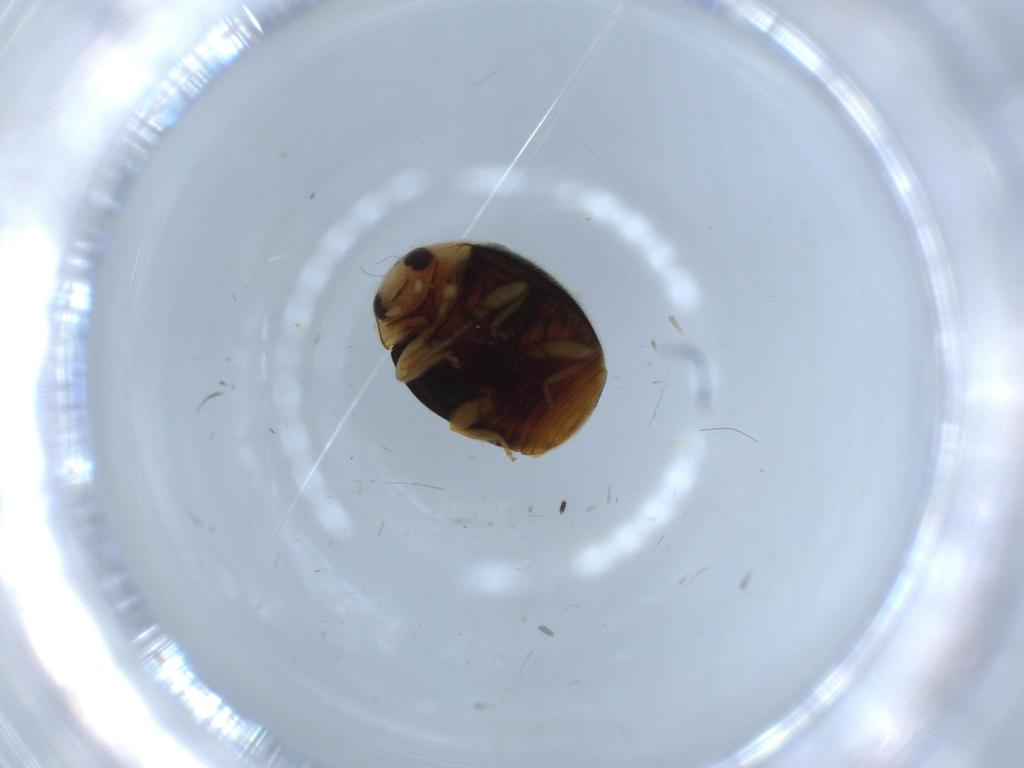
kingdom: Animalia
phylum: Arthropoda
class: Insecta
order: Coleoptera
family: Coccinellidae
